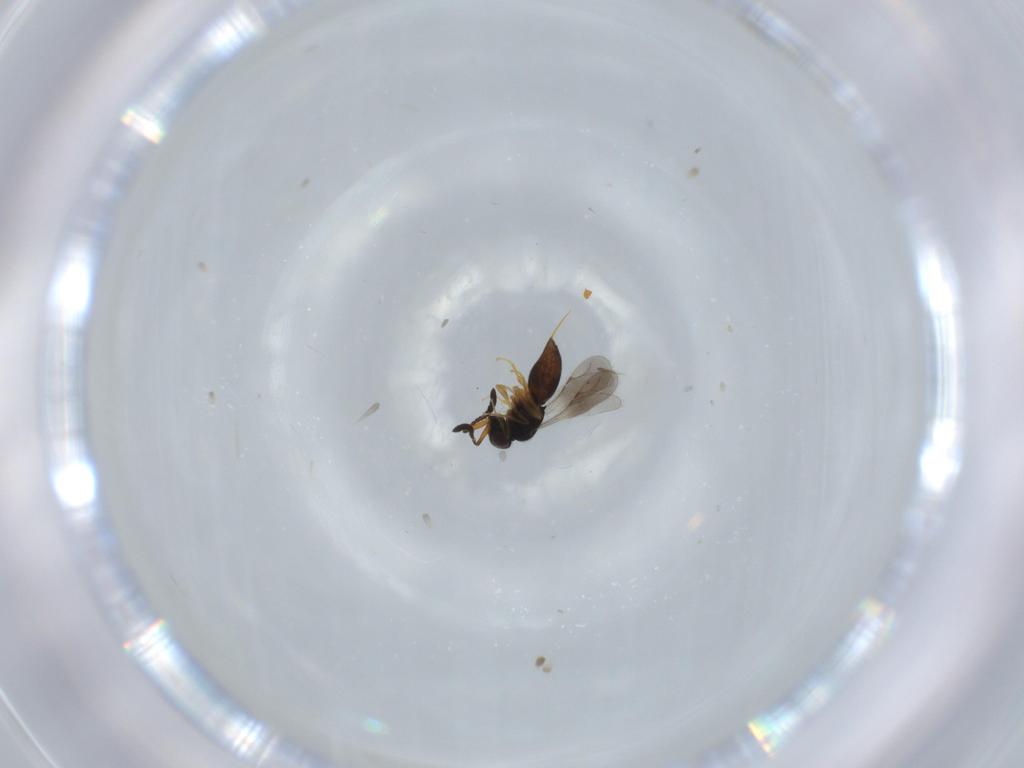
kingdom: Animalia
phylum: Arthropoda
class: Insecta
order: Hymenoptera
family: Ceraphronidae
